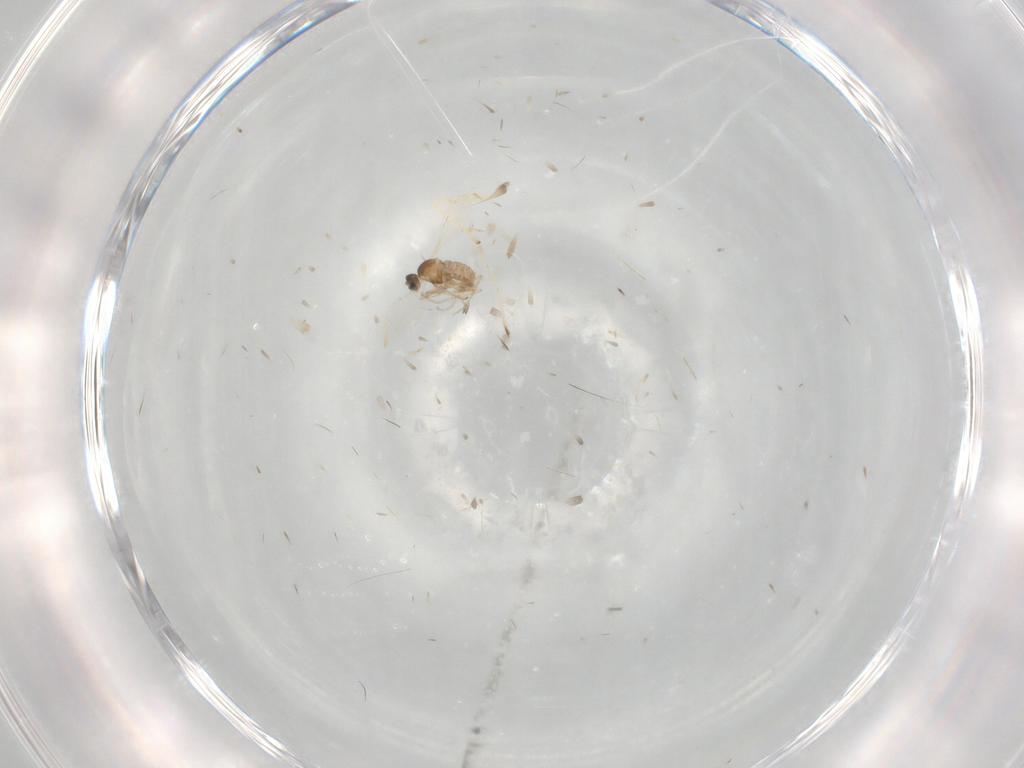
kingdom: Animalia
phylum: Arthropoda
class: Insecta
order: Diptera
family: Cecidomyiidae
